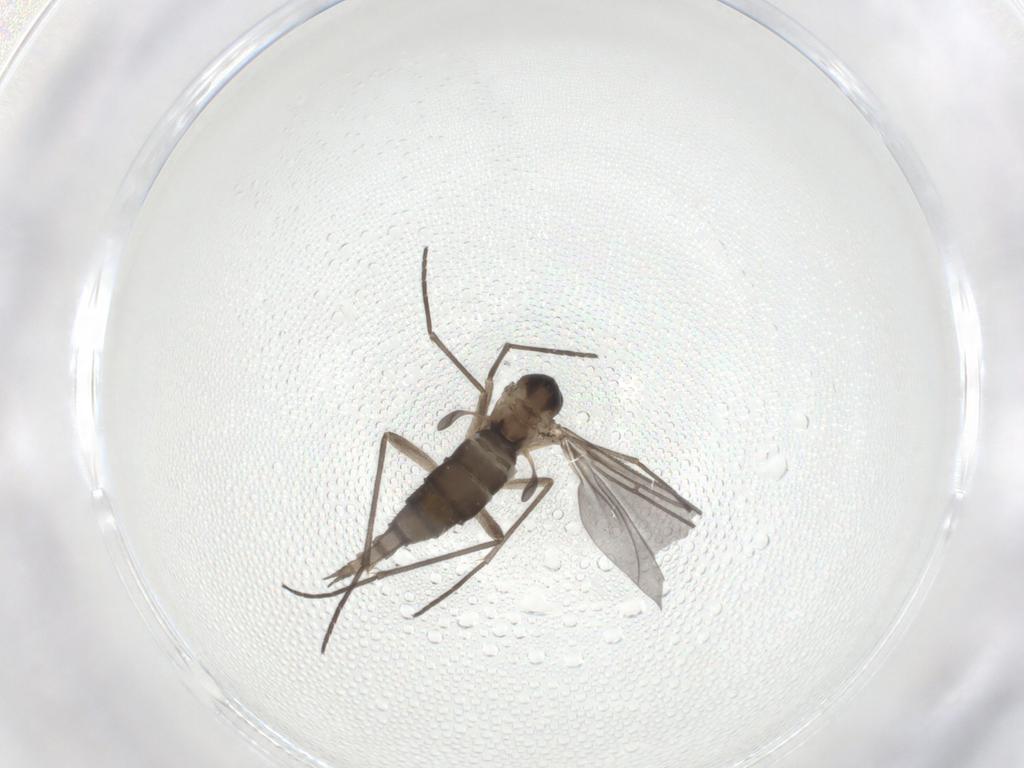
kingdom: Animalia
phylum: Arthropoda
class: Insecta
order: Diptera
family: Sciaridae
